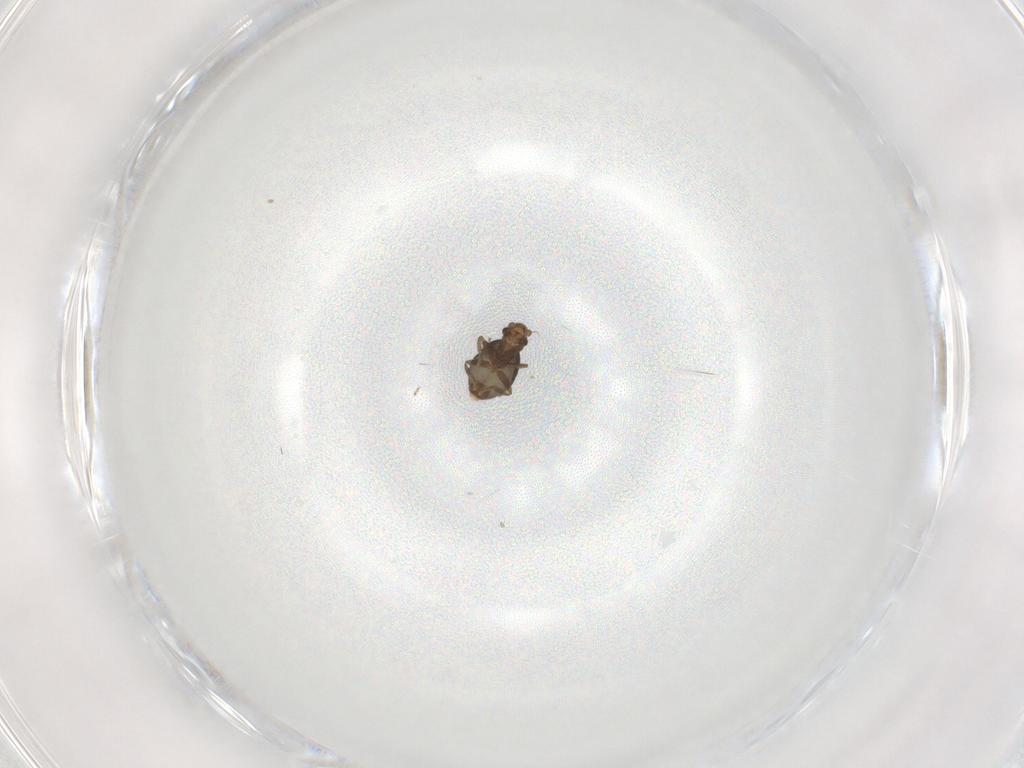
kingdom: Animalia
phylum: Arthropoda
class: Insecta
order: Diptera
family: Phoridae
